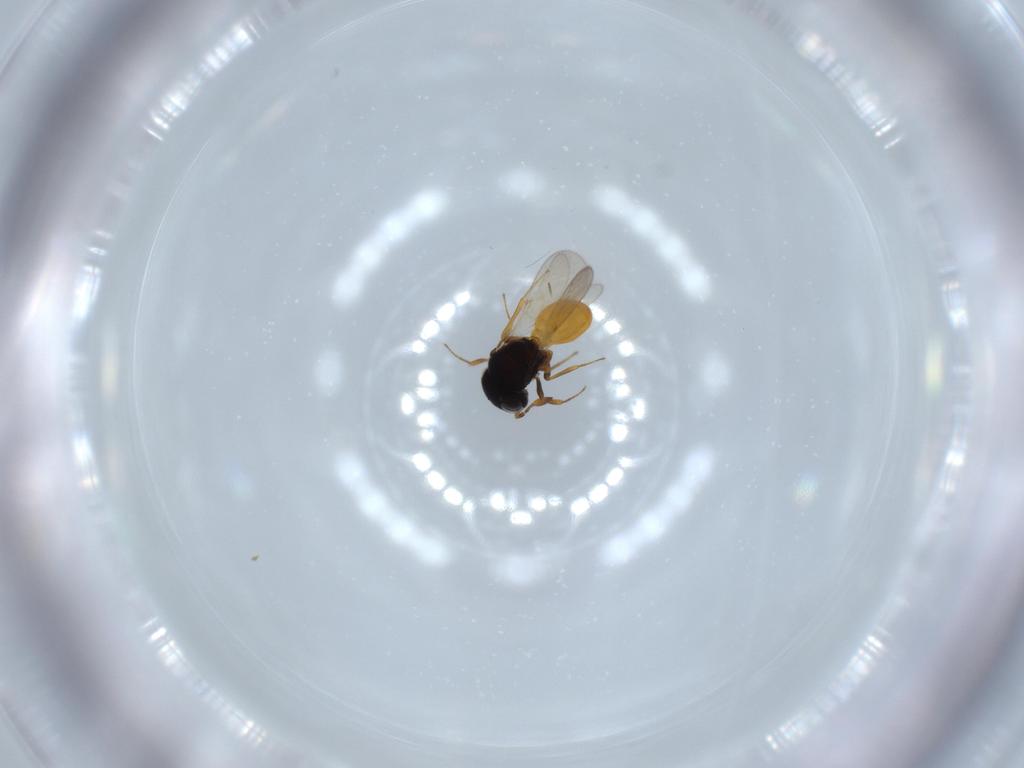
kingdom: Animalia
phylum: Arthropoda
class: Insecta
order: Hymenoptera
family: Scelionidae
